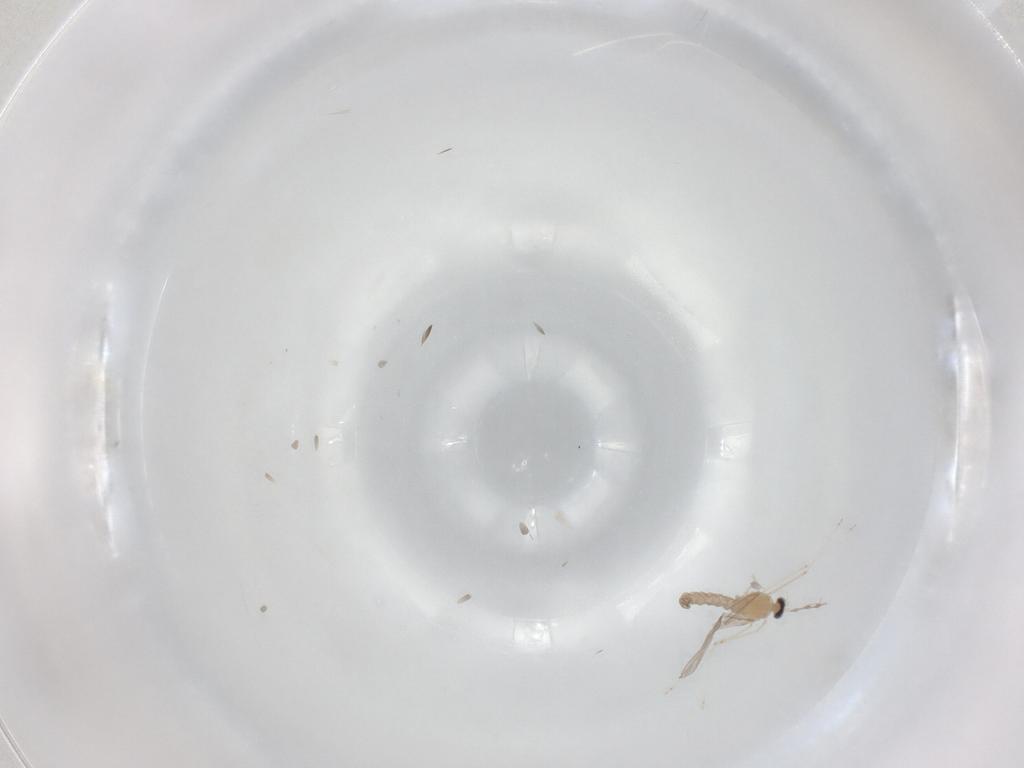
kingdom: Animalia
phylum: Arthropoda
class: Insecta
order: Diptera
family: Cecidomyiidae
